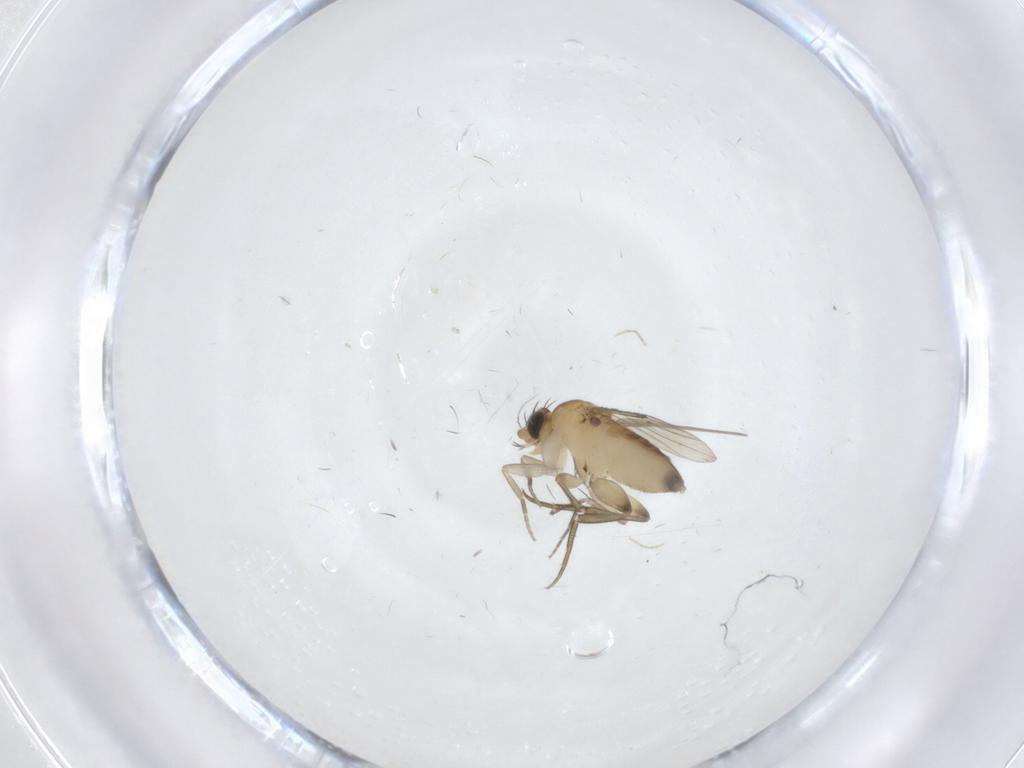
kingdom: Animalia
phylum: Arthropoda
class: Insecta
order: Diptera
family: Phoridae
